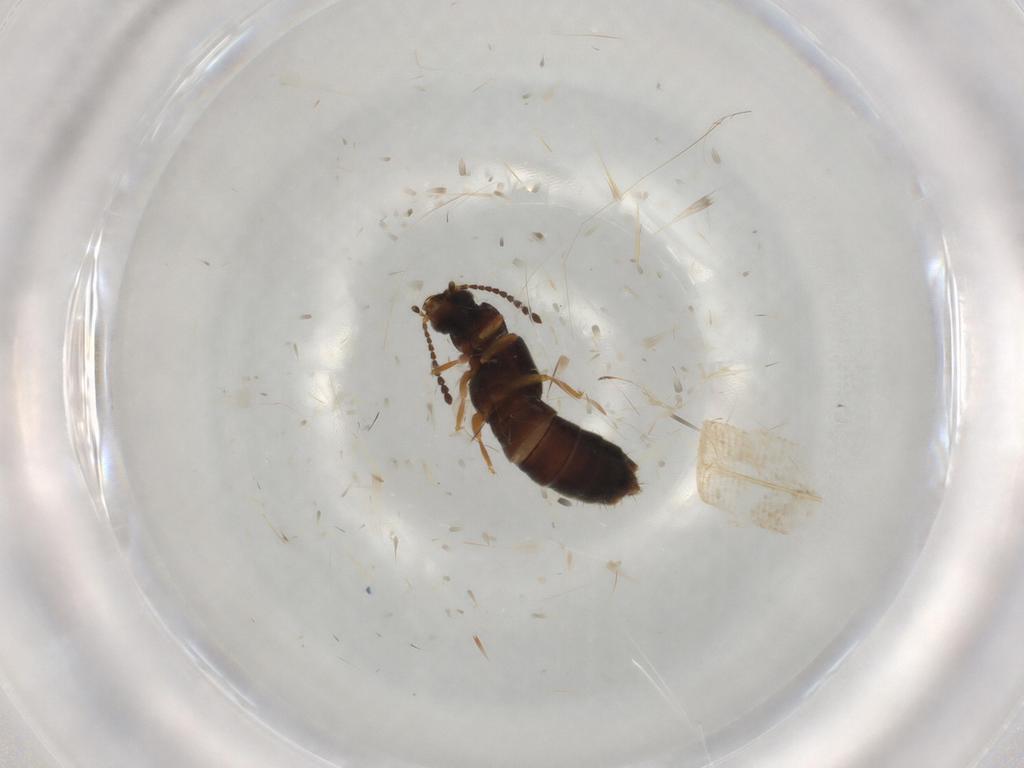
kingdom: Animalia
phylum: Arthropoda
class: Insecta
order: Coleoptera
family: Staphylinidae
